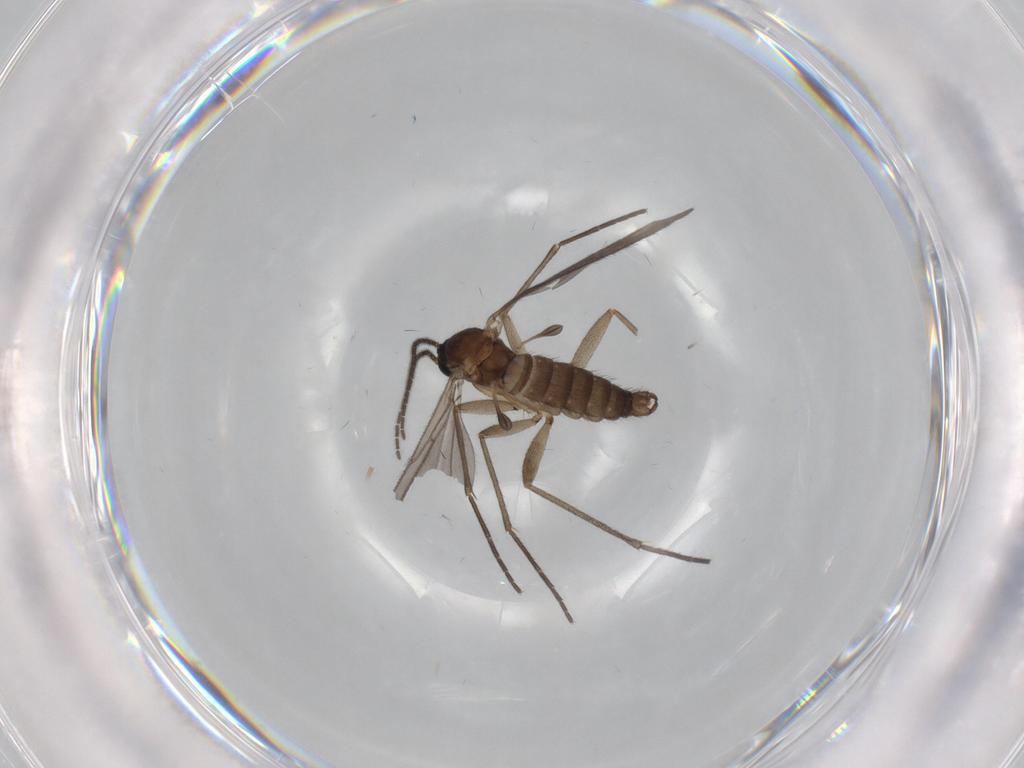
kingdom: Animalia
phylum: Arthropoda
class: Insecta
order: Diptera
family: Sciaridae
